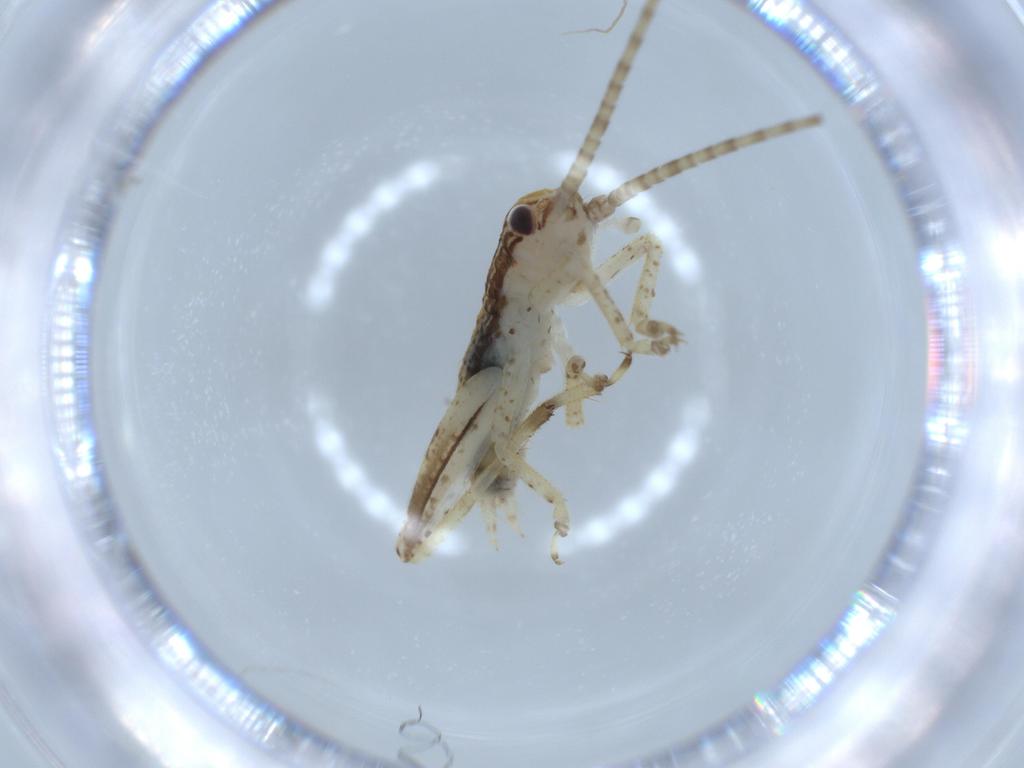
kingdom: Animalia
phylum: Arthropoda
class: Insecta
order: Orthoptera
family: Gryllidae
